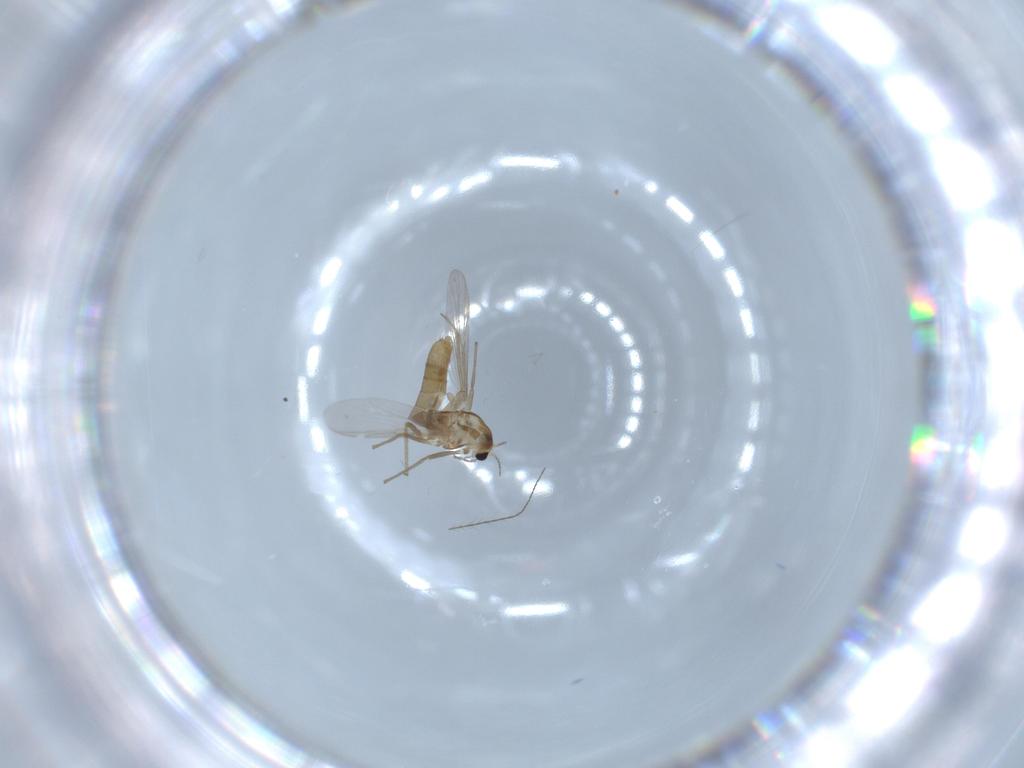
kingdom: Animalia
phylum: Arthropoda
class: Insecta
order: Diptera
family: Chironomidae
